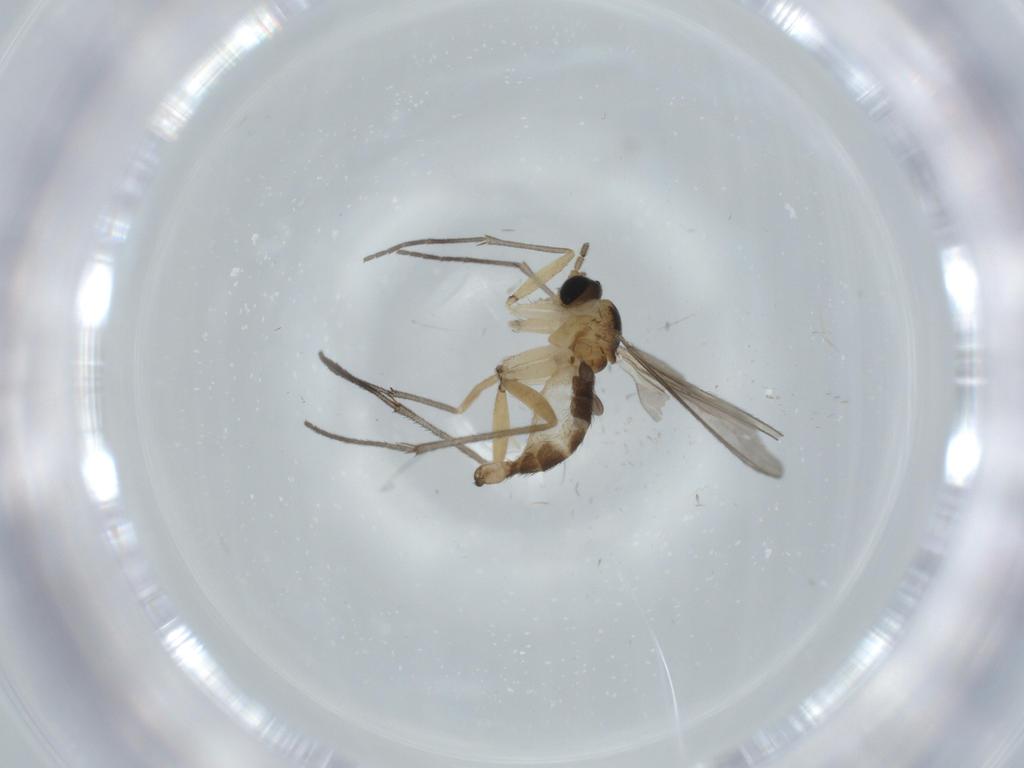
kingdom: Animalia
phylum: Arthropoda
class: Insecta
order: Diptera
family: Sciaridae
